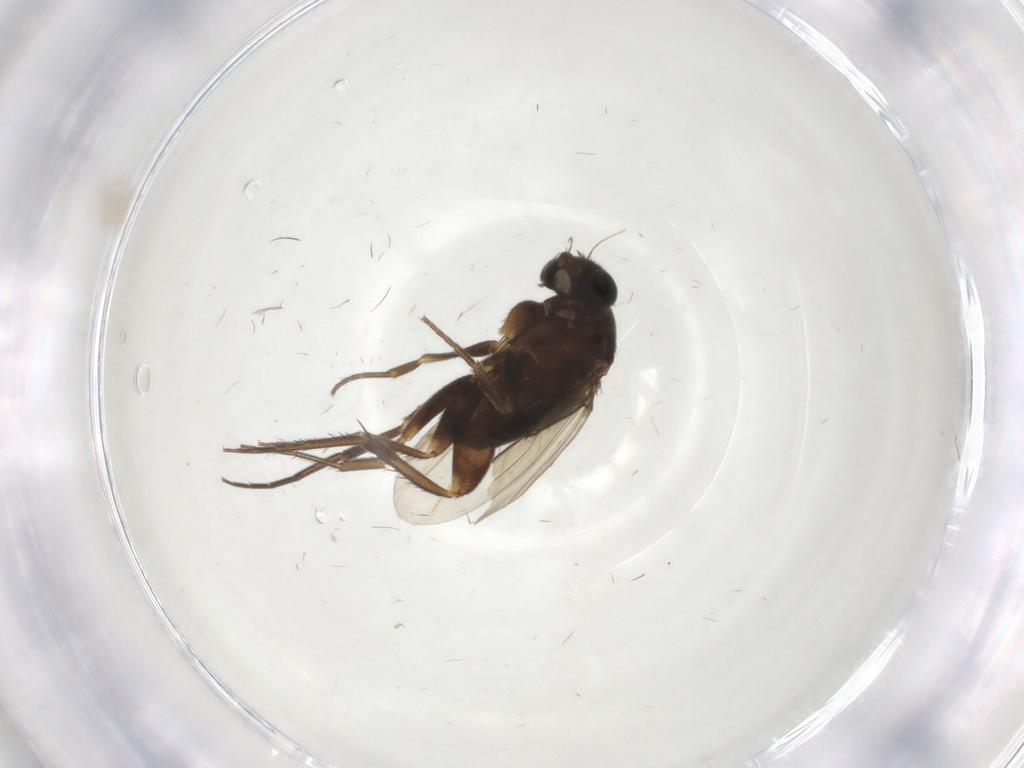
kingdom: Animalia
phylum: Arthropoda
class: Insecta
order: Diptera
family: Phoridae
